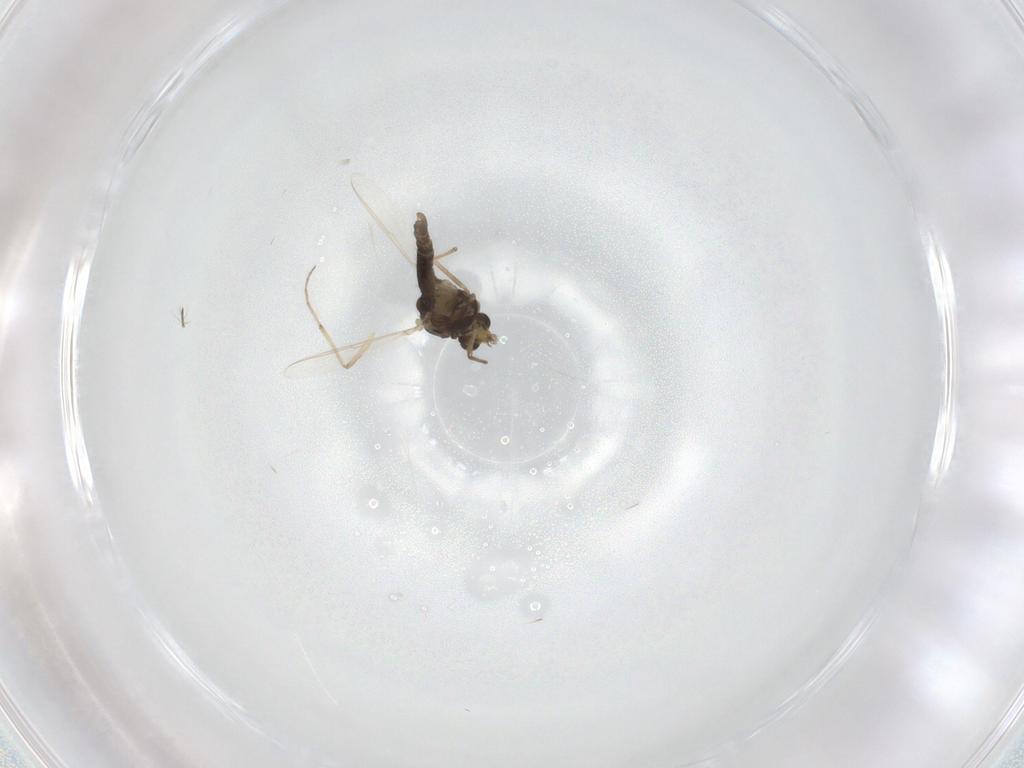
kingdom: Animalia
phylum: Arthropoda
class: Insecta
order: Diptera
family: Chironomidae
